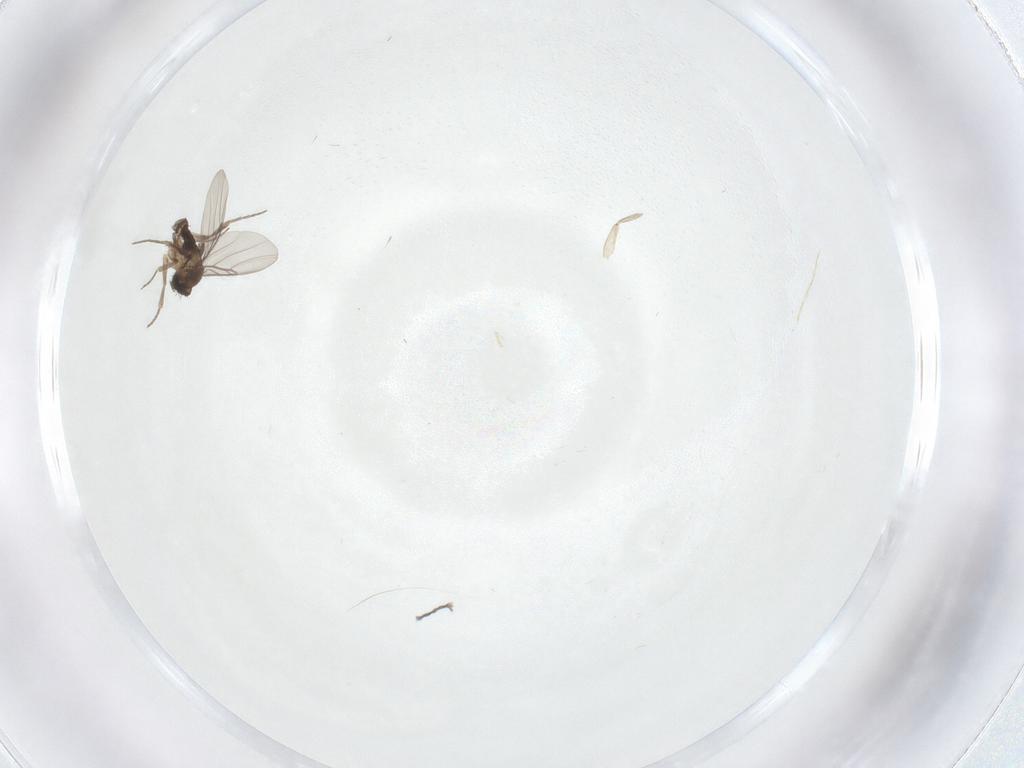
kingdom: Animalia
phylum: Arthropoda
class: Insecta
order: Diptera
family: Phoridae
